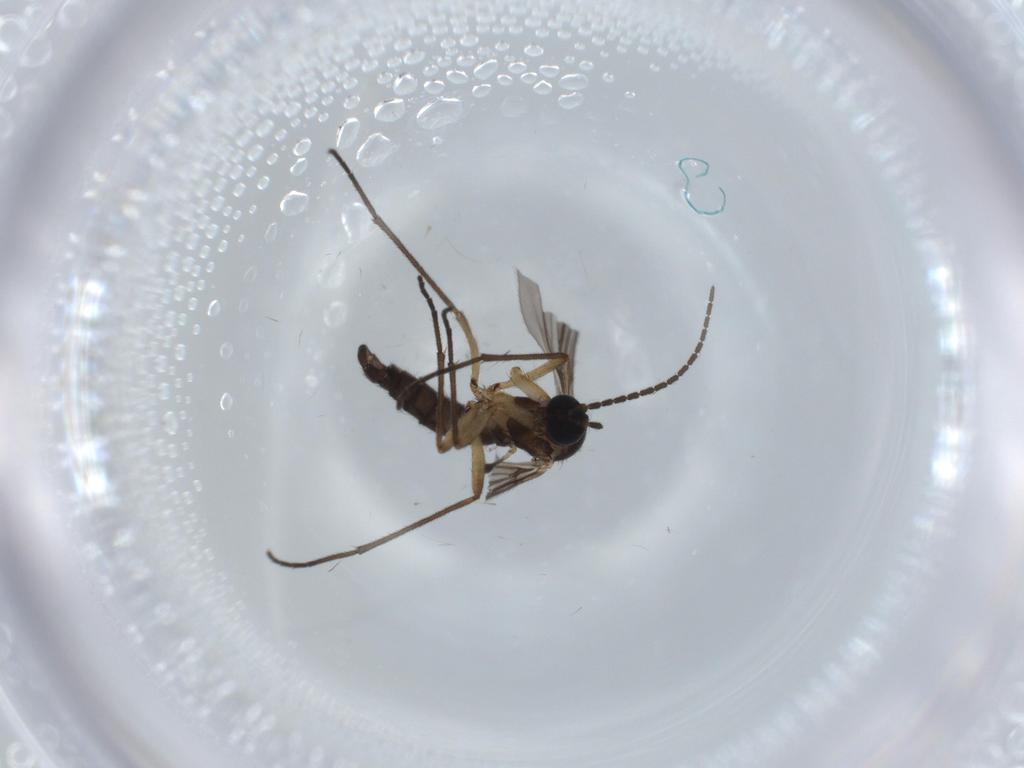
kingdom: Animalia
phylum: Arthropoda
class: Insecta
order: Diptera
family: Sciaridae
